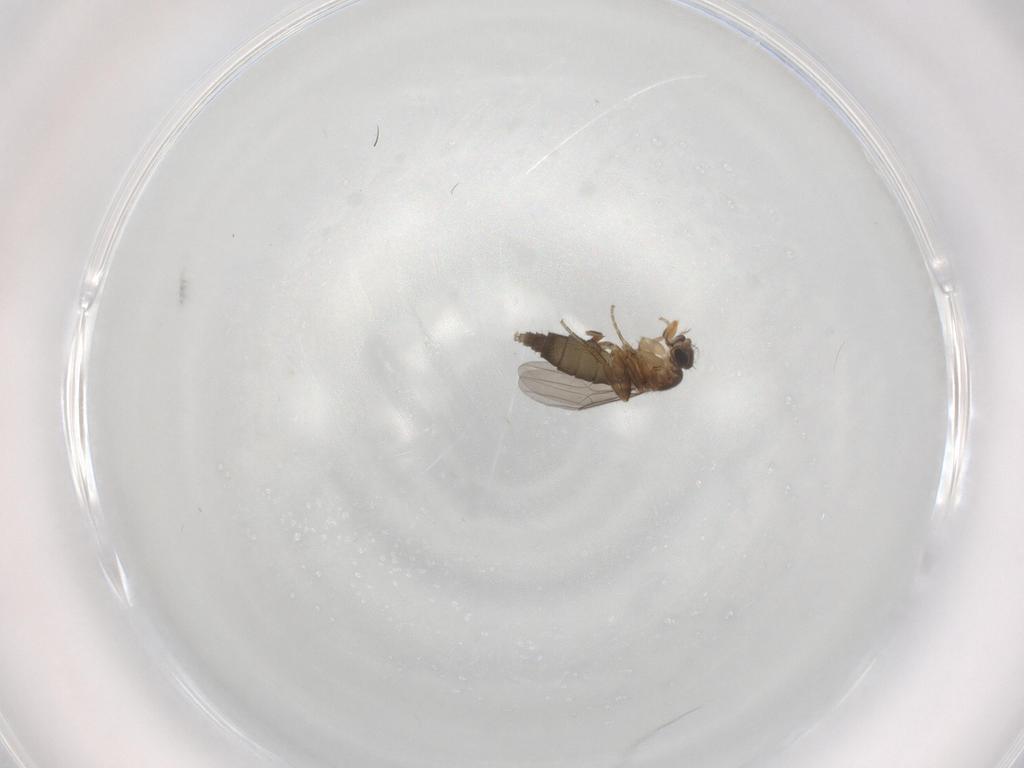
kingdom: Animalia
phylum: Arthropoda
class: Insecta
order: Diptera
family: Phoridae
